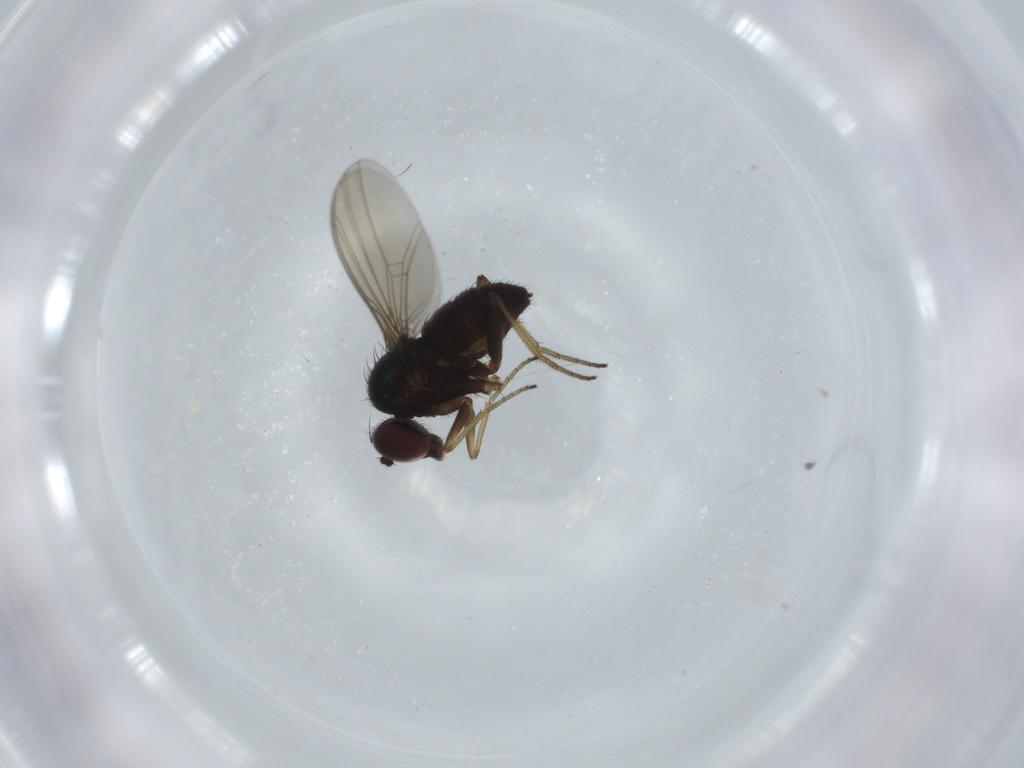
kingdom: Animalia
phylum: Arthropoda
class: Insecta
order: Diptera
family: Dolichopodidae
